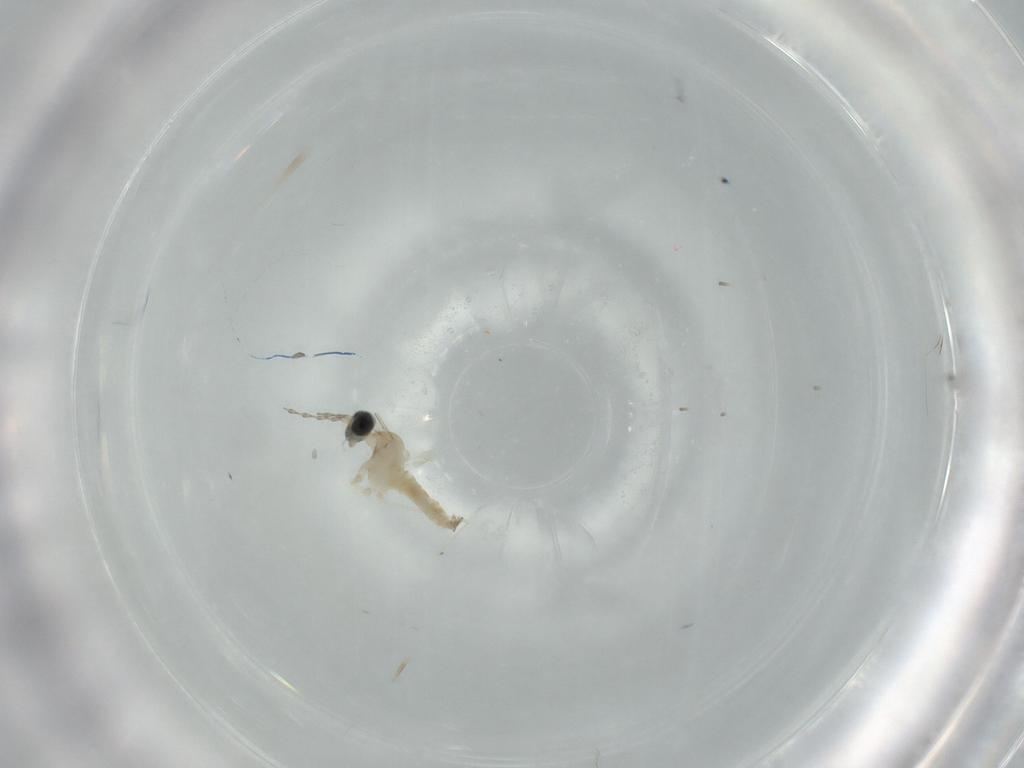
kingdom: Animalia
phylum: Arthropoda
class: Insecta
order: Diptera
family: Cecidomyiidae
